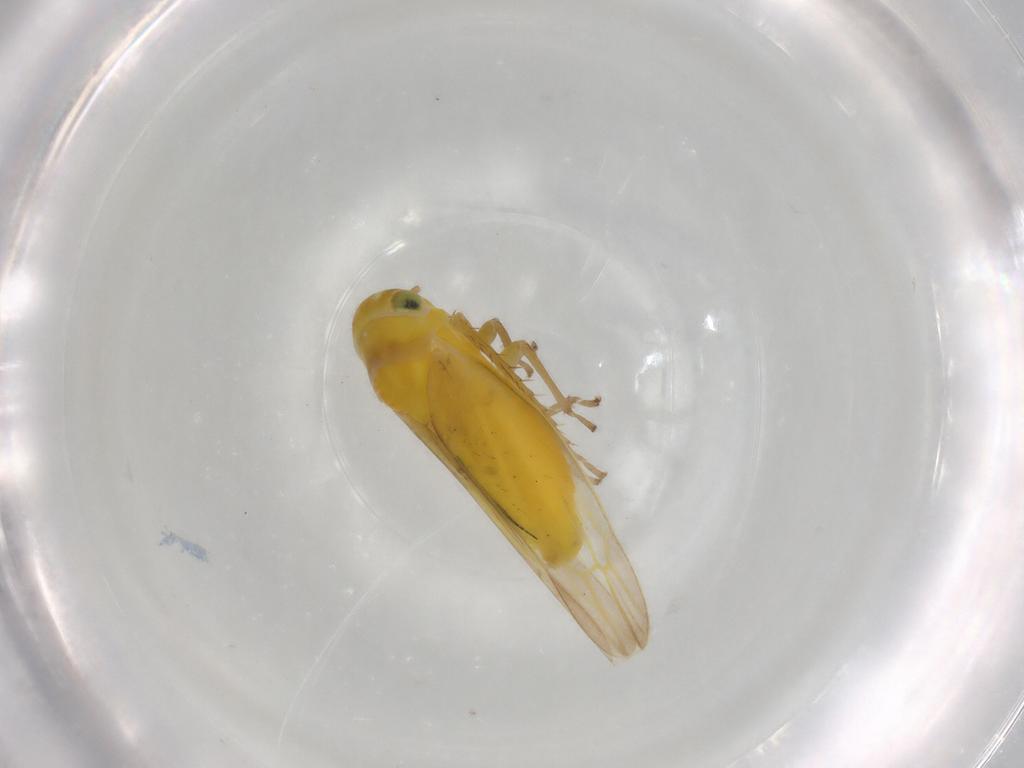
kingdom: Animalia
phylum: Arthropoda
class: Insecta
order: Hemiptera
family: Cicadellidae
